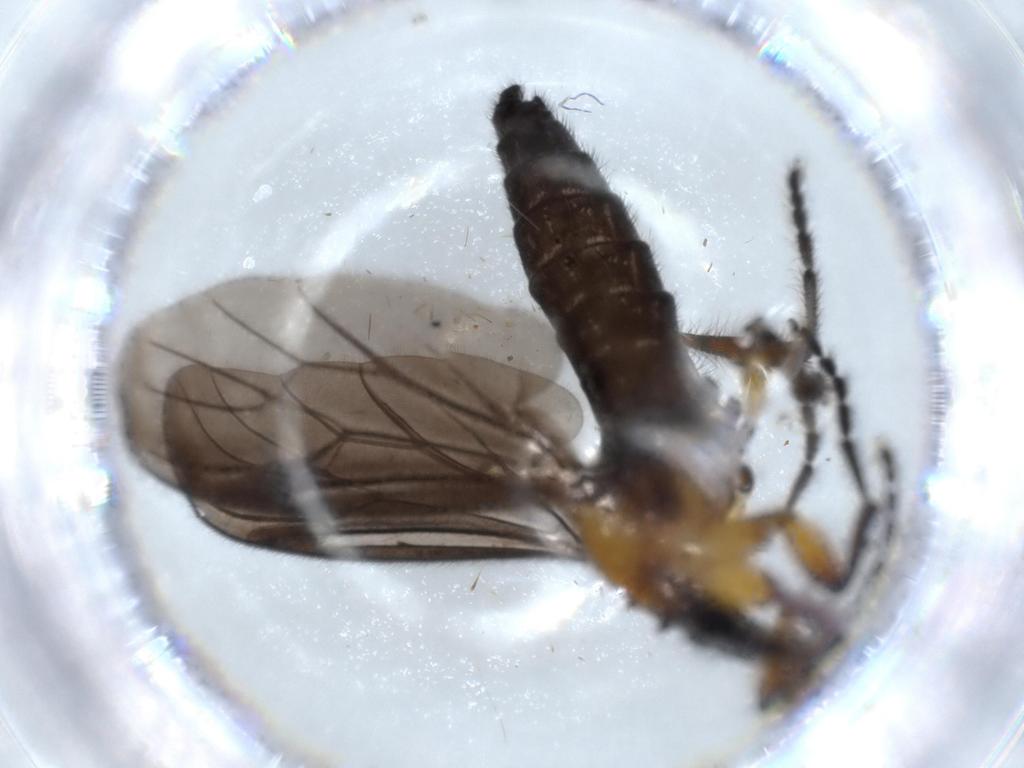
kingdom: Animalia
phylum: Arthropoda
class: Insecta
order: Diptera
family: Bibionidae
